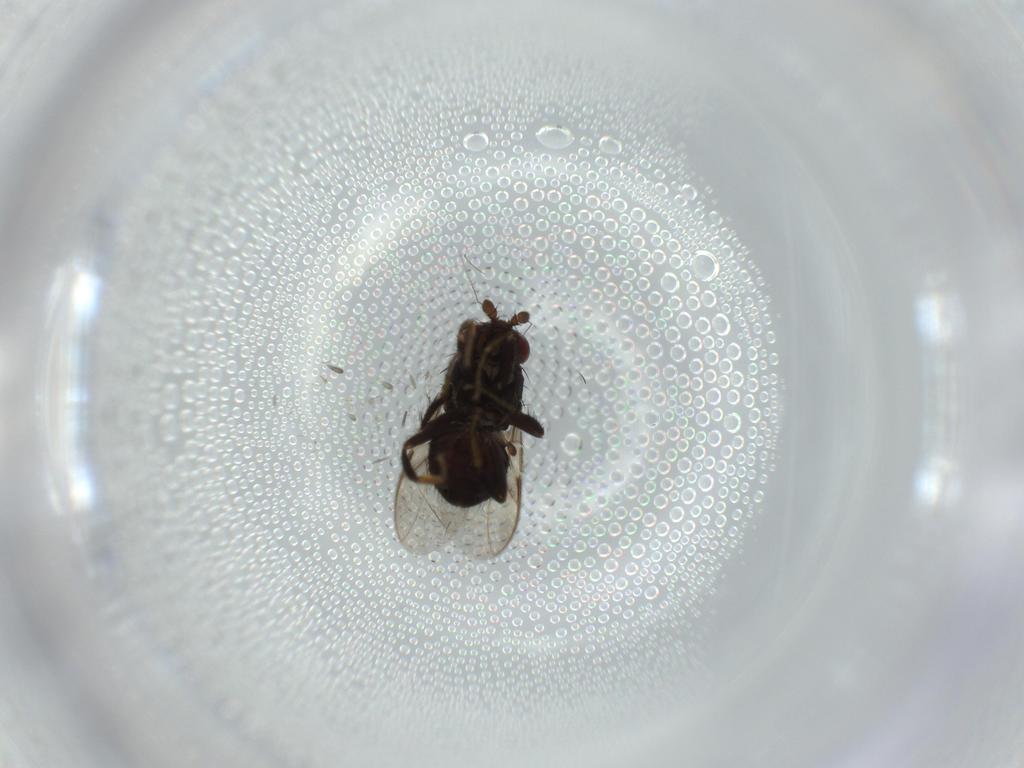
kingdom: Animalia
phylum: Arthropoda
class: Insecta
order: Diptera
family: Sphaeroceridae
